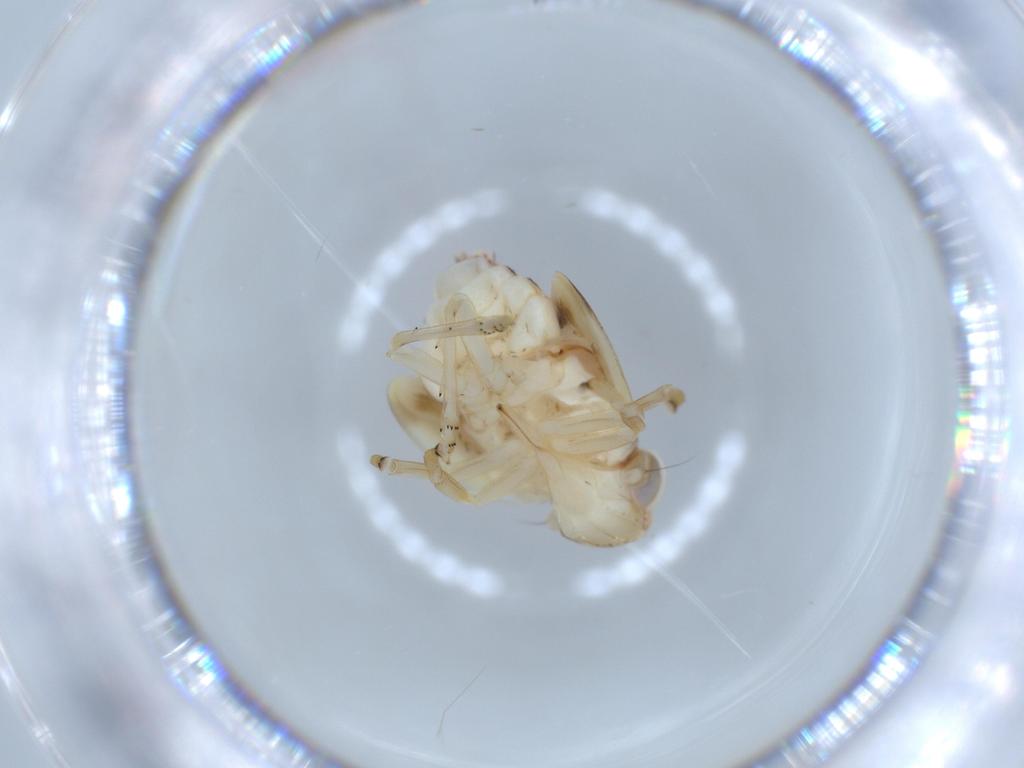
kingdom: Animalia
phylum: Arthropoda
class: Insecta
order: Hemiptera
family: Nogodinidae
